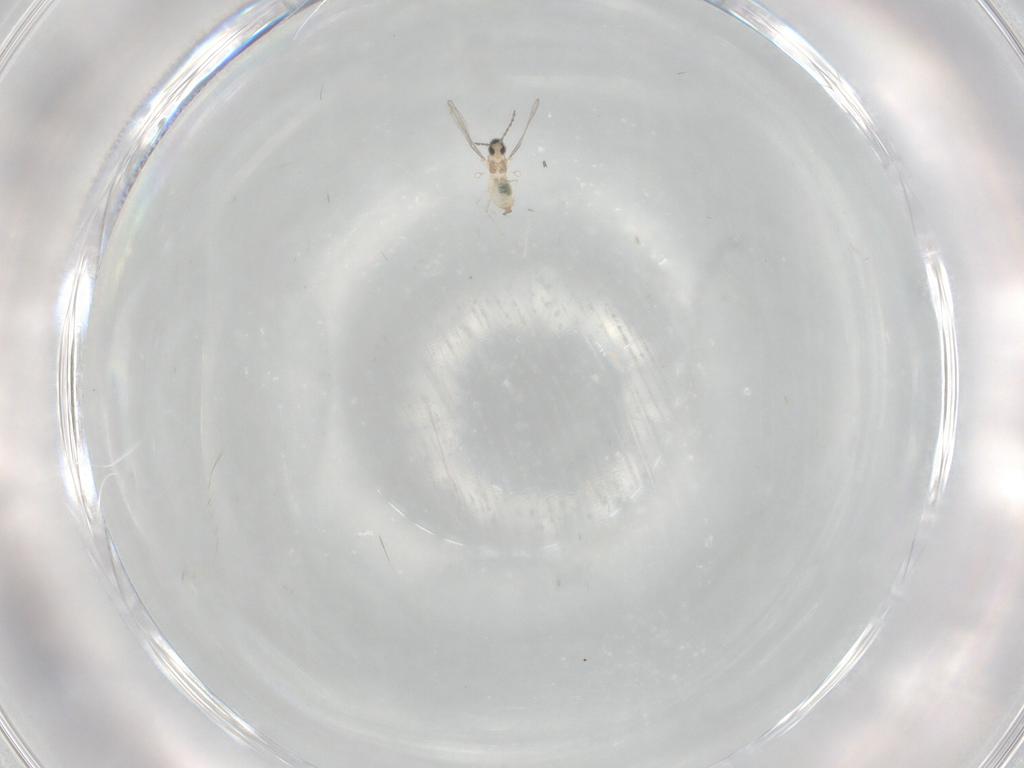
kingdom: Animalia
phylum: Arthropoda
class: Insecta
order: Diptera
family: Cecidomyiidae
